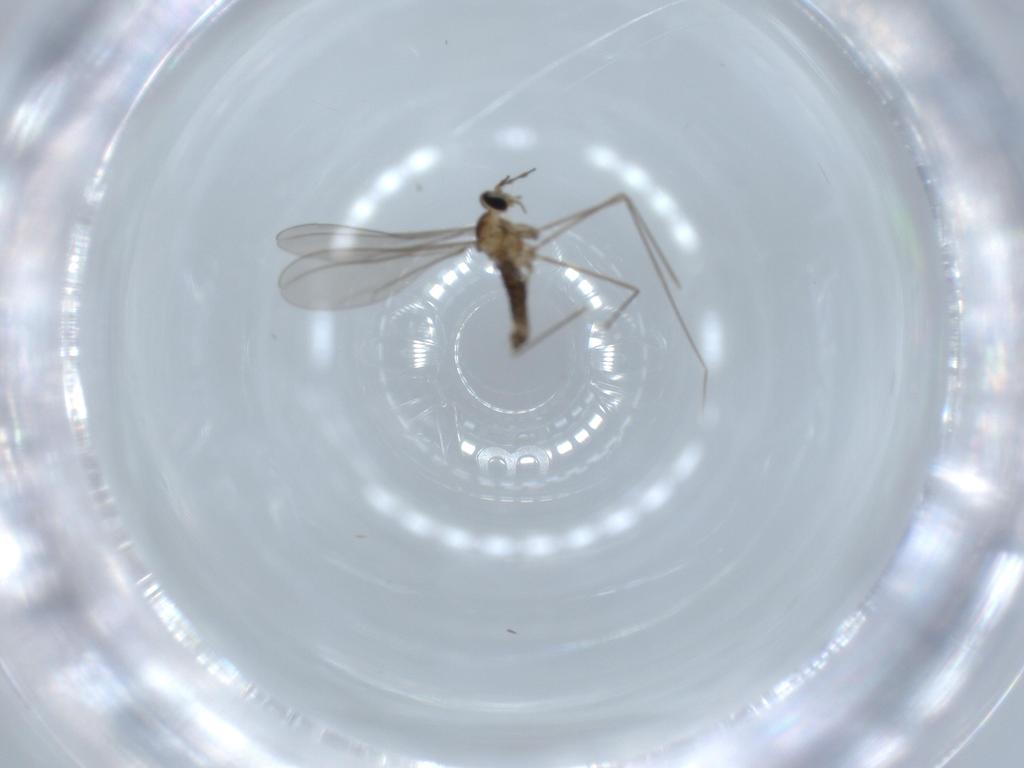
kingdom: Animalia
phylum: Arthropoda
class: Insecta
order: Diptera
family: Cecidomyiidae
